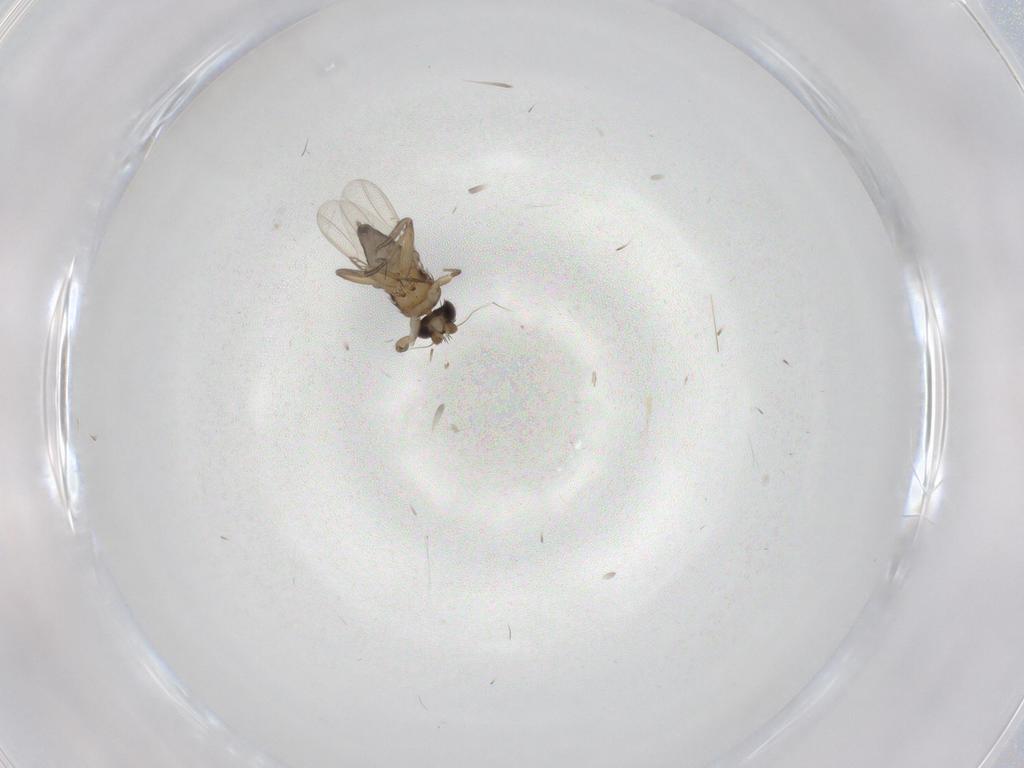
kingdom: Animalia
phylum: Arthropoda
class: Insecta
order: Diptera
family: Phoridae
